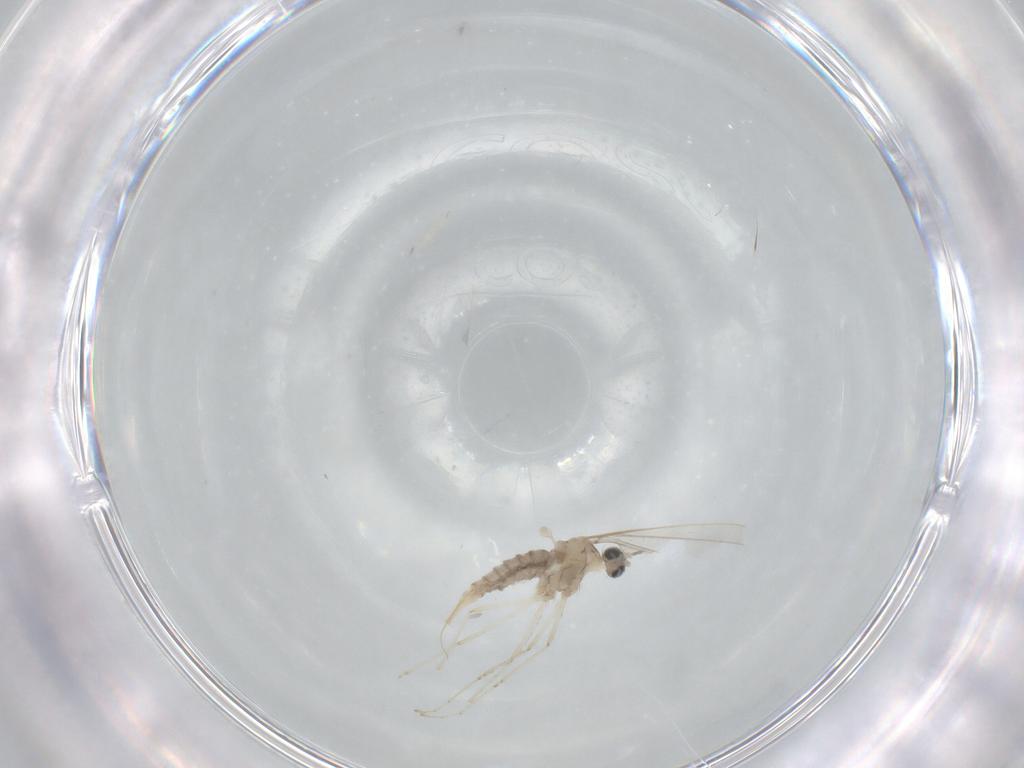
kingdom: Animalia
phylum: Arthropoda
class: Insecta
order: Diptera
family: Cecidomyiidae
